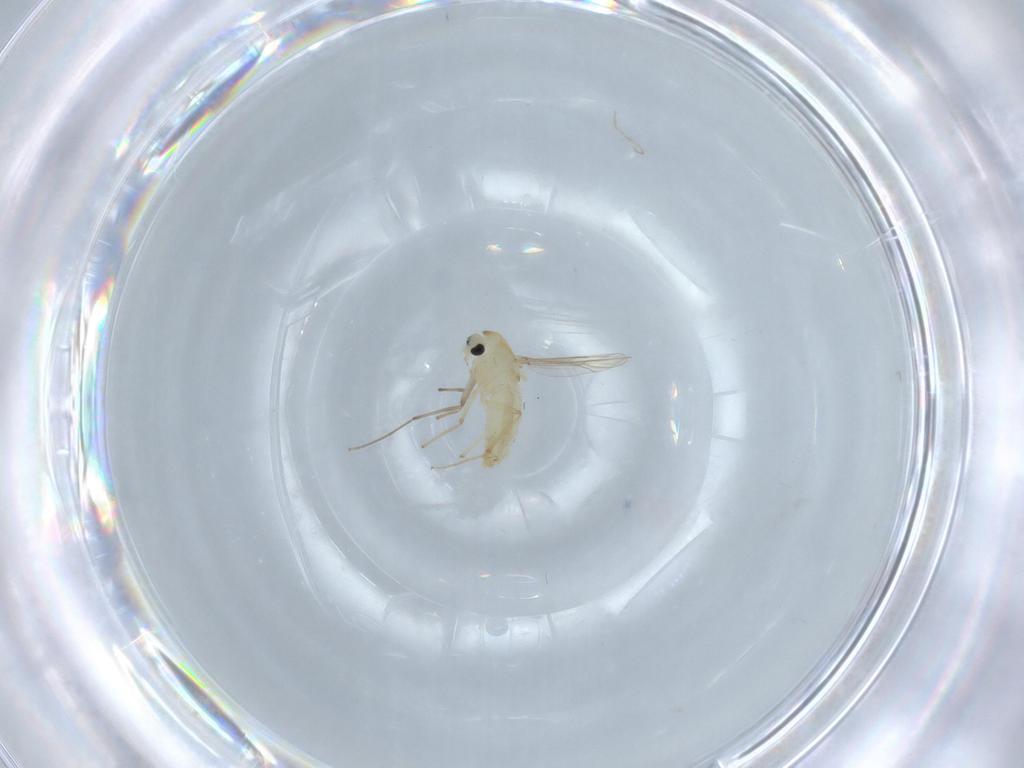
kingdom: Animalia
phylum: Arthropoda
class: Insecta
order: Diptera
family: Chironomidae
